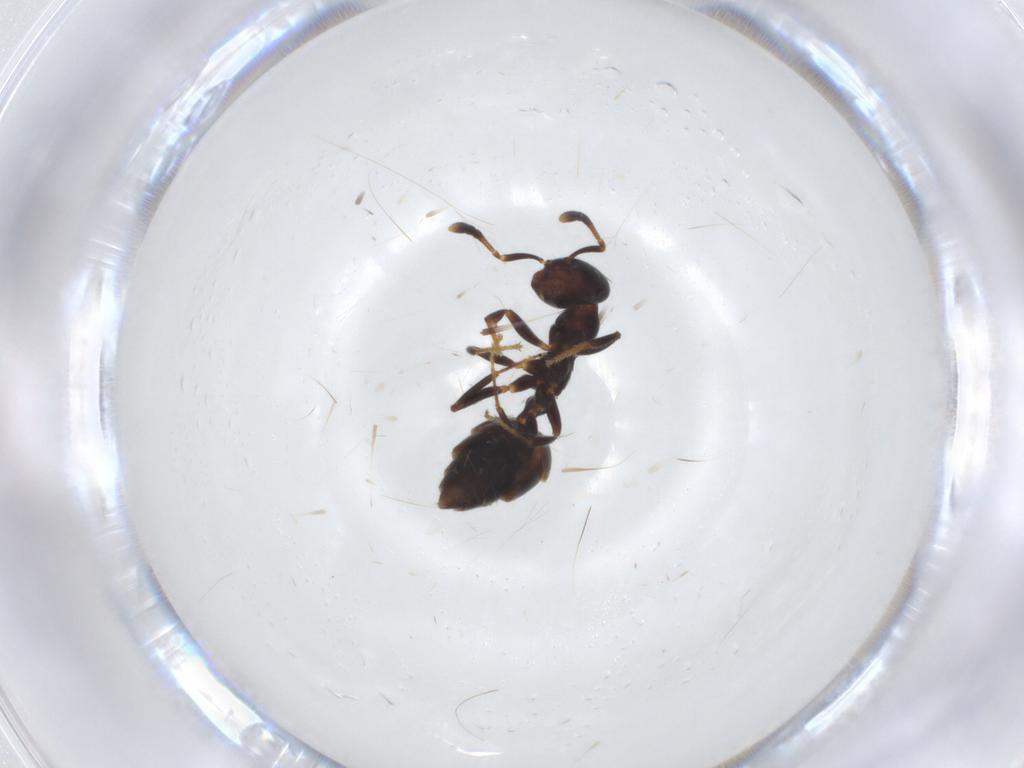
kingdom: Animalia
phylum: Arthropoda
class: Insecta
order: Hymenoptera
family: Formicidae
